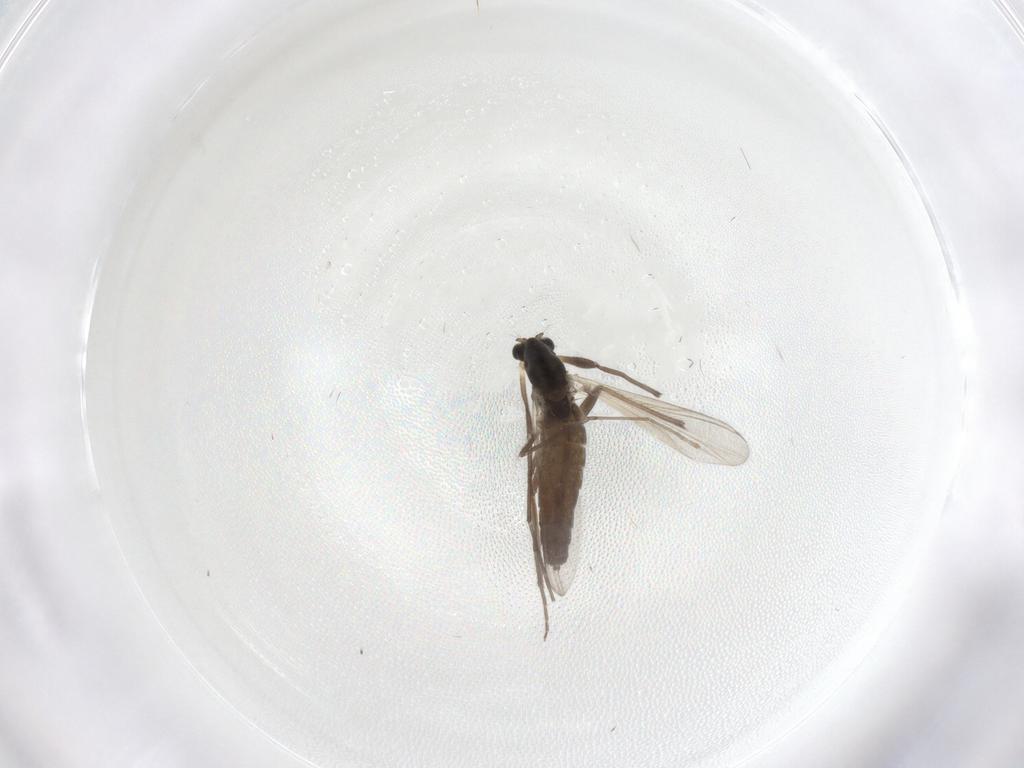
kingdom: Animalia
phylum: Arthropoda
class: Insecta
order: Diptera
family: Chironomidae
